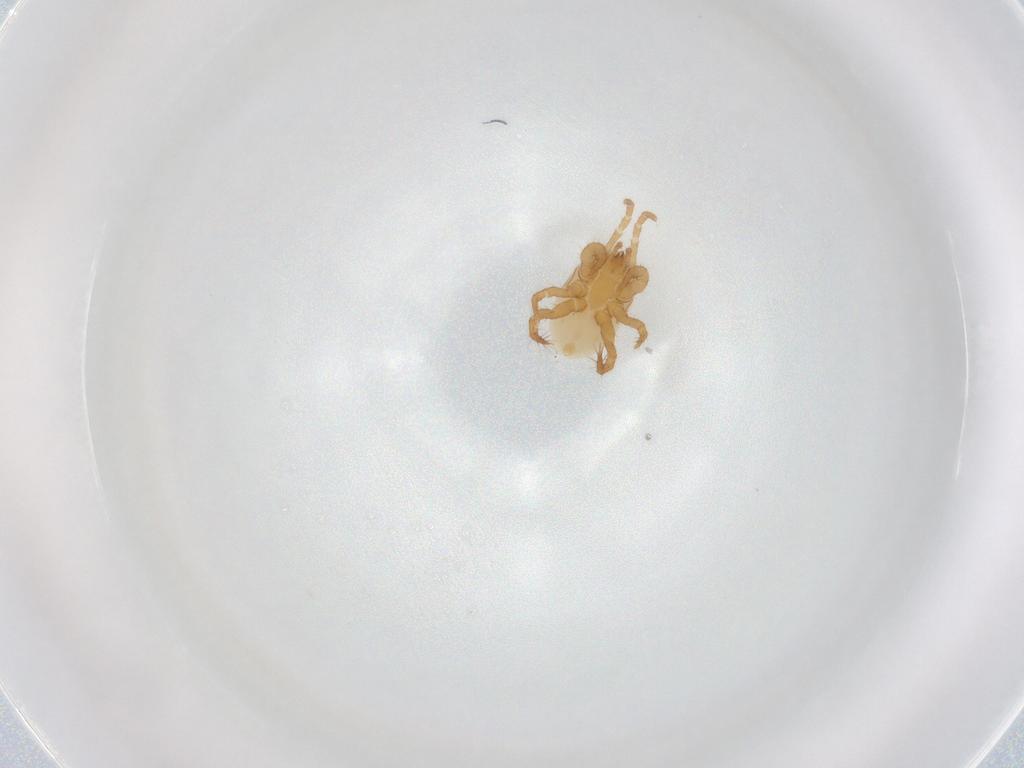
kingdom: Animalia
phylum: Arthropoda
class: Arachnida
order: Mesostigmata
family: Parasitidae
